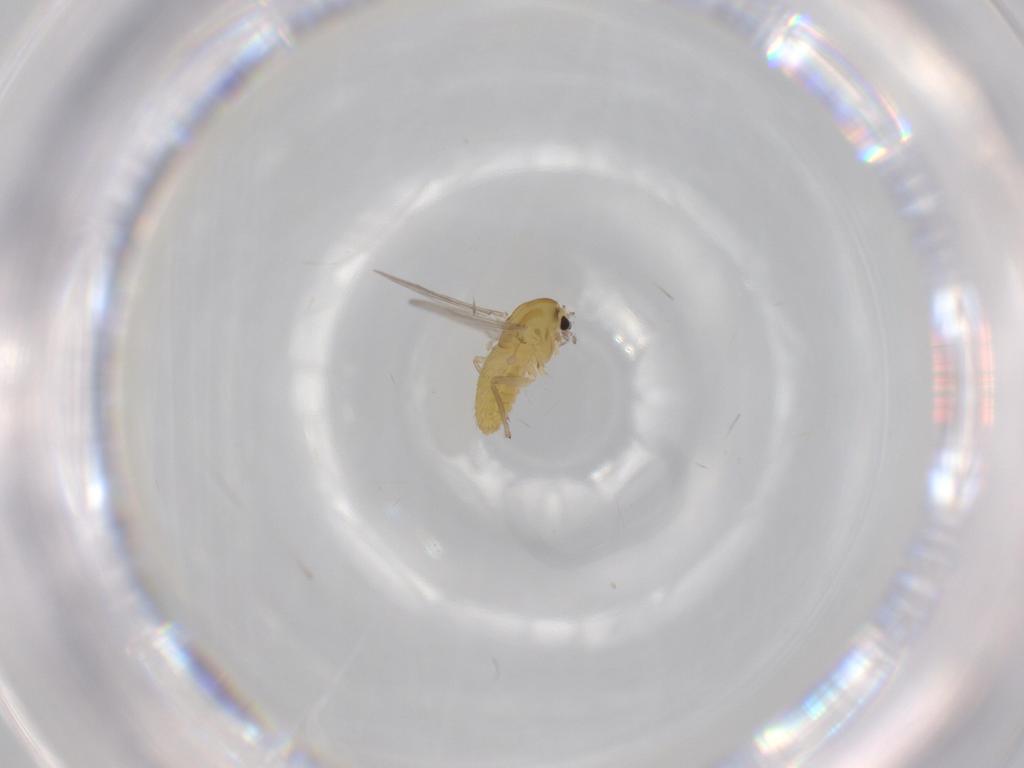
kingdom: Animalia
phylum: Arthropoda
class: Insecta
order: Diptera
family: Chironomidae
